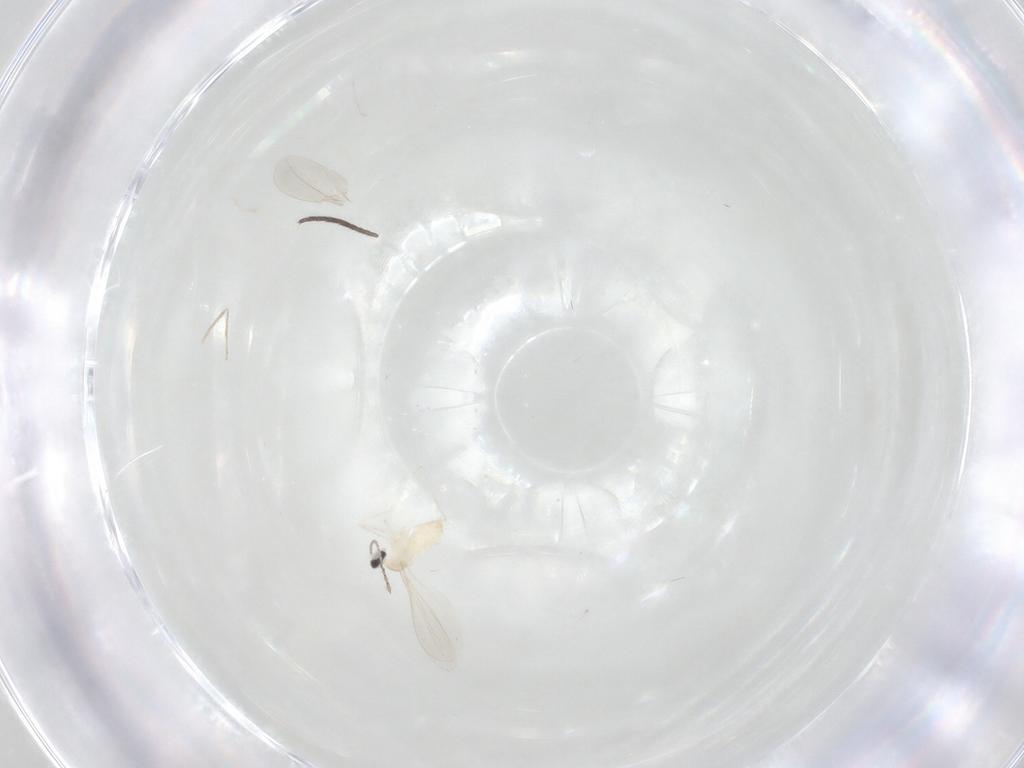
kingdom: Animalia
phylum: Arthropoda
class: Insecta
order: Diptera
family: Cecidomyiidae
